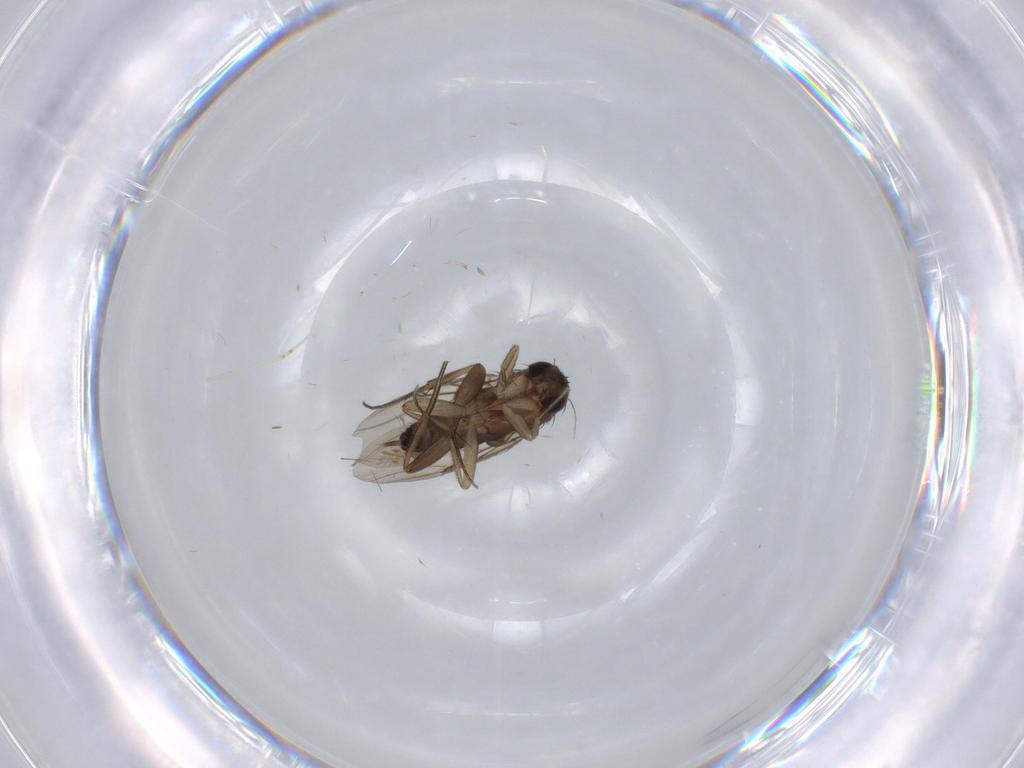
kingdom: Animalia
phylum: Arthropoda
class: Insecta
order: Diptera
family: Cecidomyiidae
